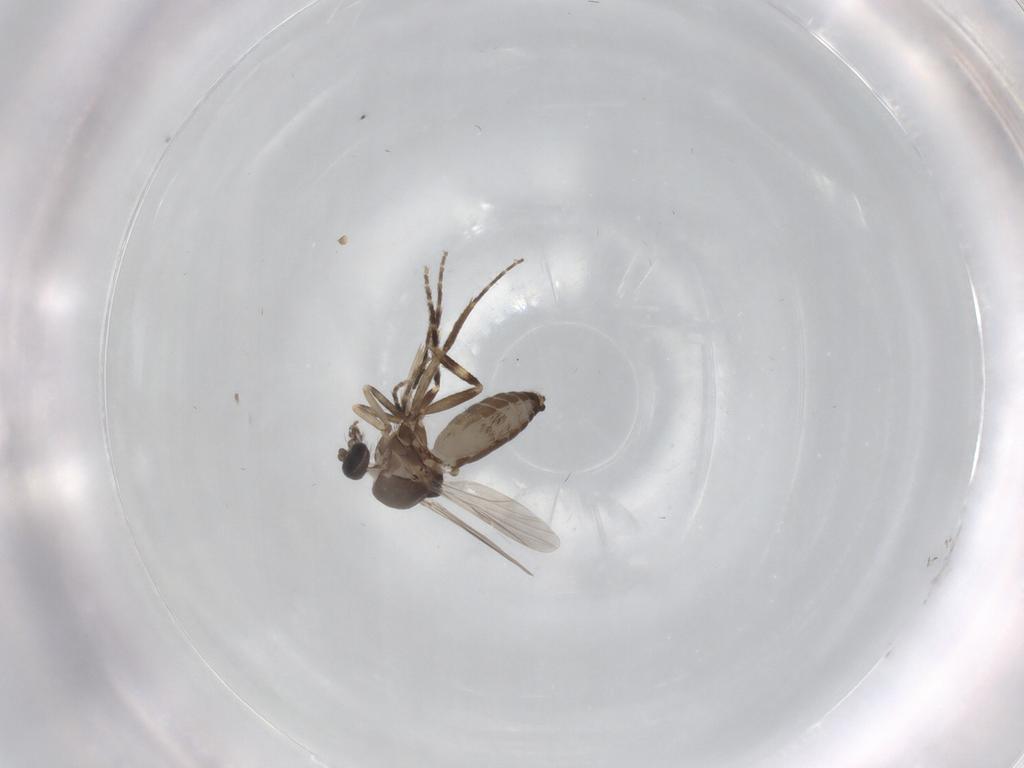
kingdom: Animalia
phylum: Arthropoda
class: Insecta
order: Diptera
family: Ceratopogonidae
